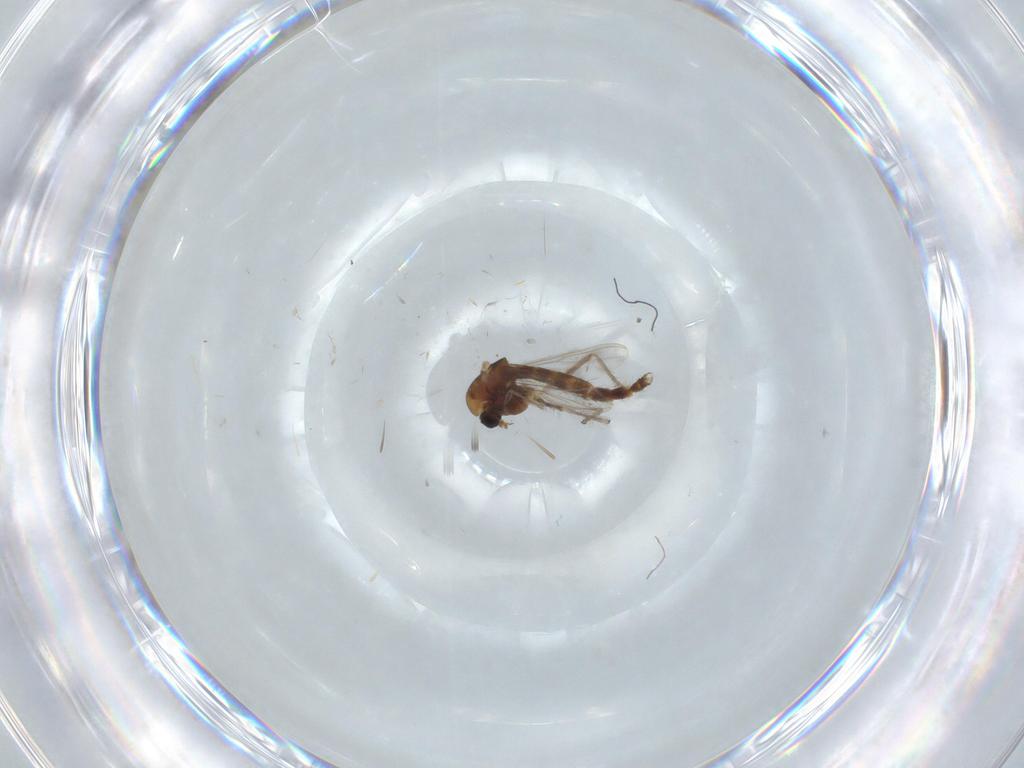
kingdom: Animalia
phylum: Arthropoda
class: Insecta
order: Diptera
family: Chironomidae
